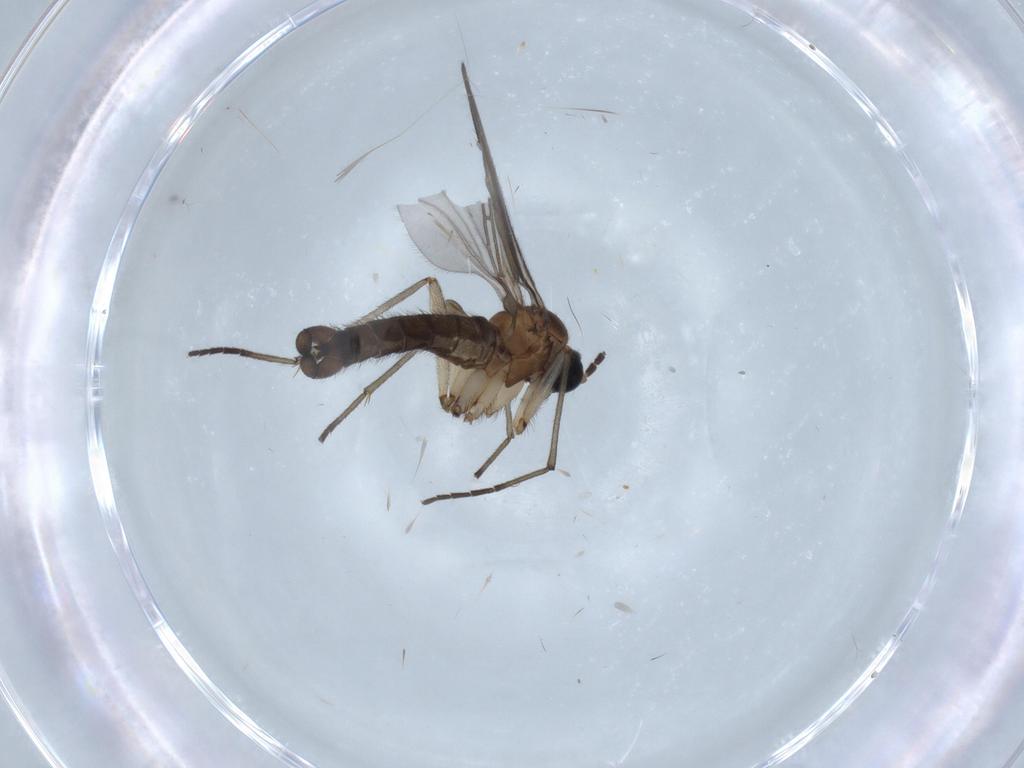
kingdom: Animalia
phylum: Arthropoda
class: Insecta
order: Diptera
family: Sciaridae
